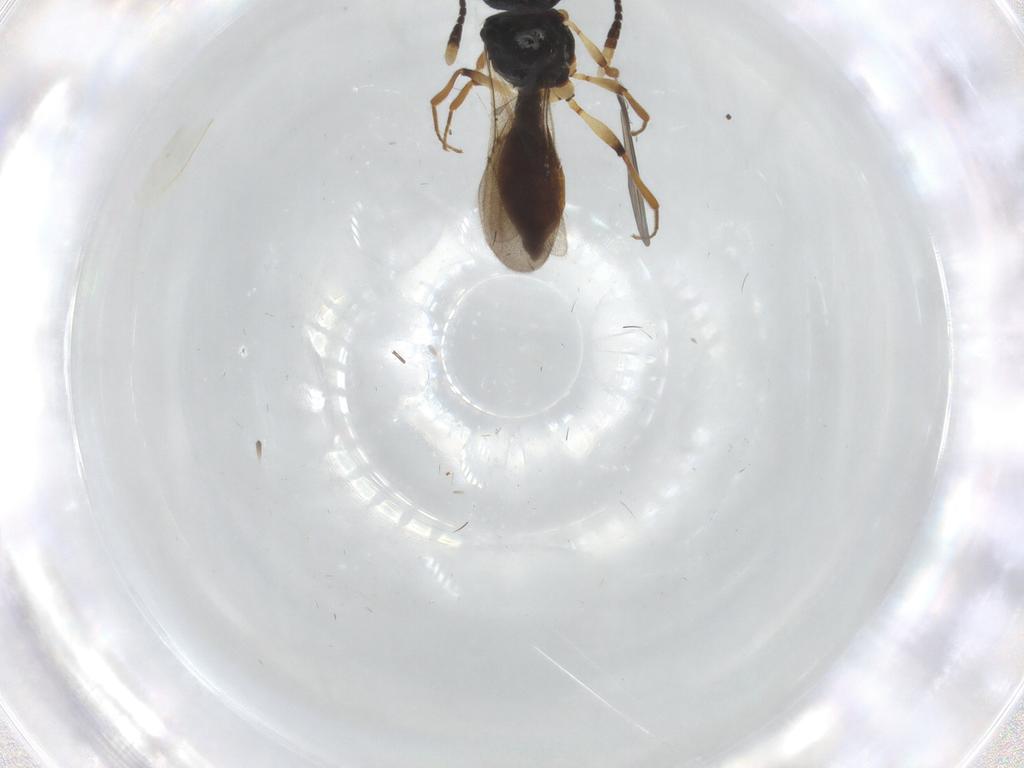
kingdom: Animalia
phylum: Arthropoda
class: Insecta
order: Hymenoptera
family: Scelionidae
